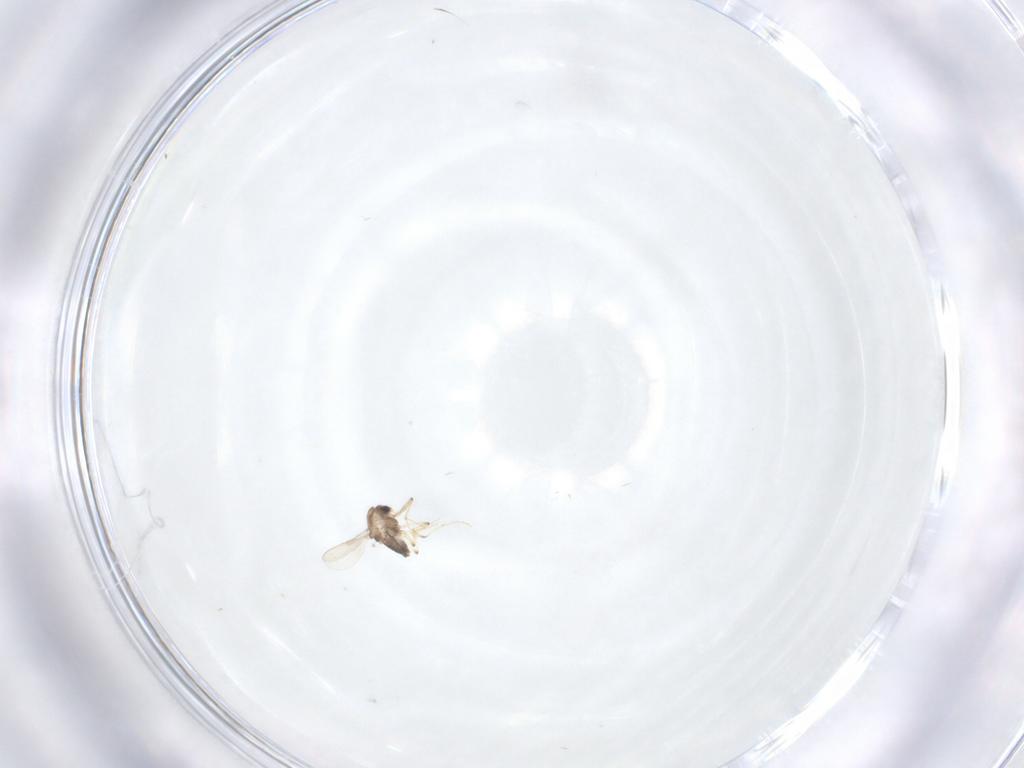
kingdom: Animalia
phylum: Arthropoda
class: Insecta
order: Diptera
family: Chironomidae
